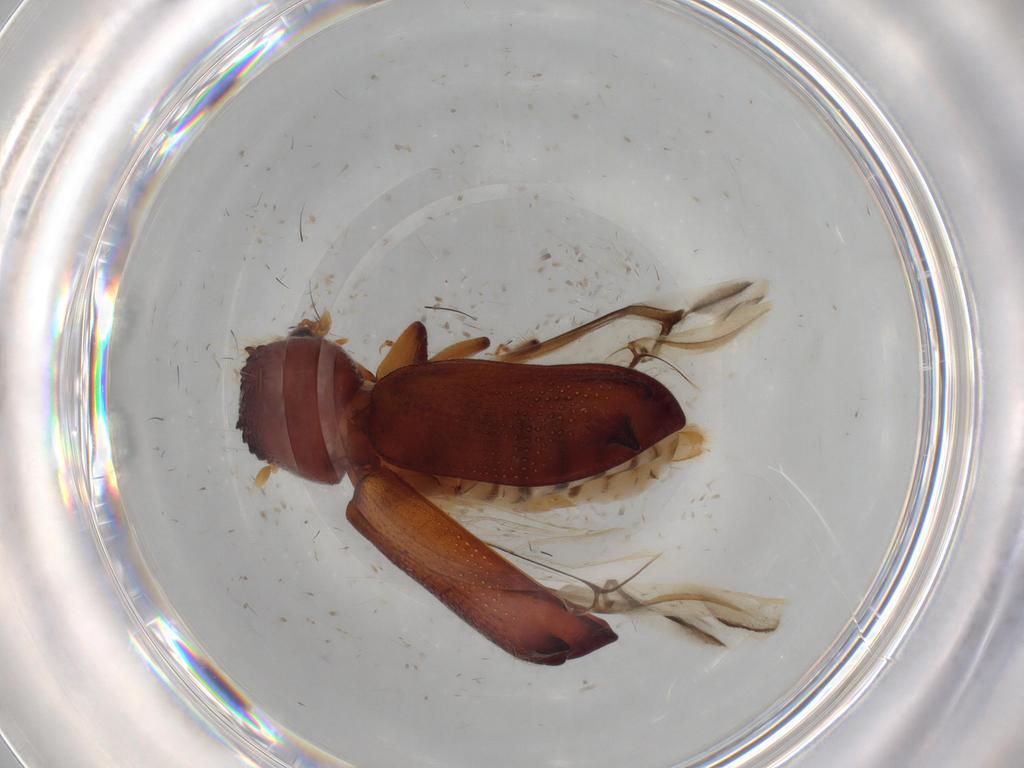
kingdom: Animalia
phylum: Arthropoda
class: Insecta
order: Coleoptera
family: Bostrichidae
